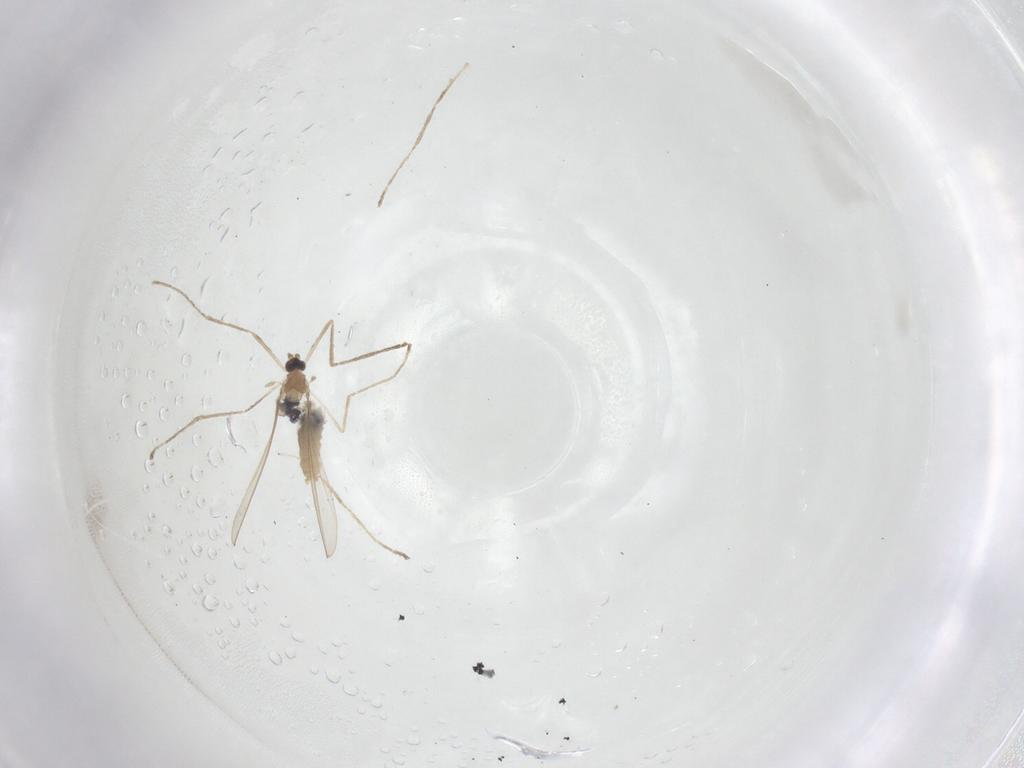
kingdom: Animalia
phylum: Arthropoda
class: Insecta
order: Diptera
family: Cecidomyiidae
